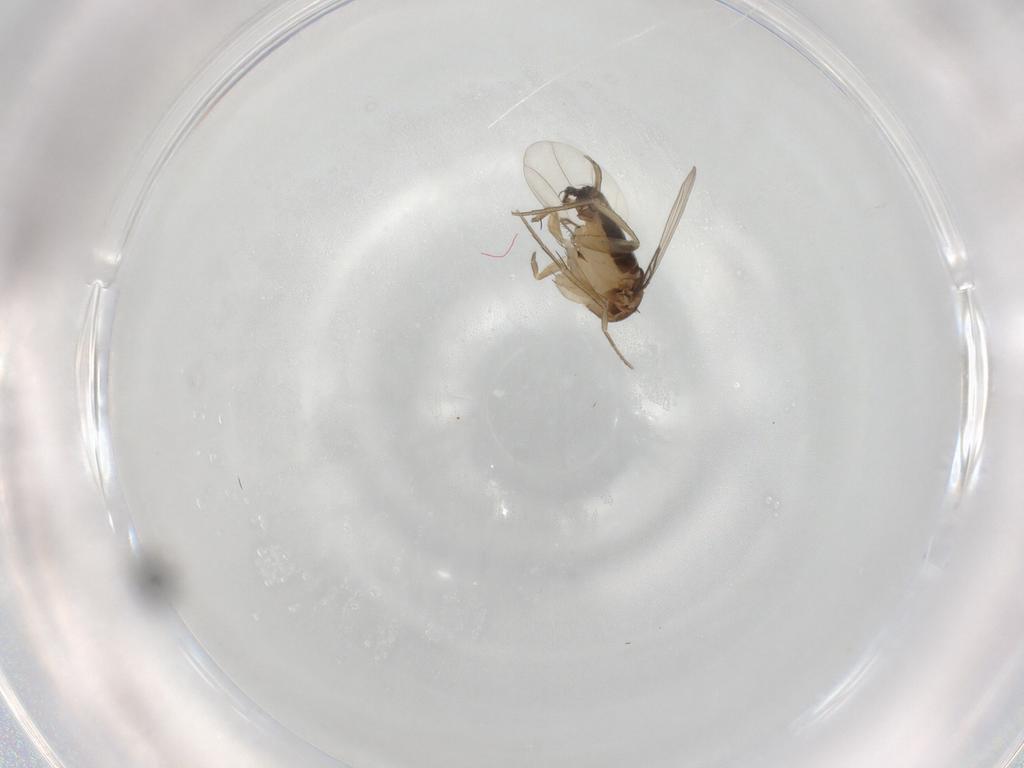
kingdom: Animalia
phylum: Arthropoda
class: Insecta
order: Diptera
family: Phoridae
